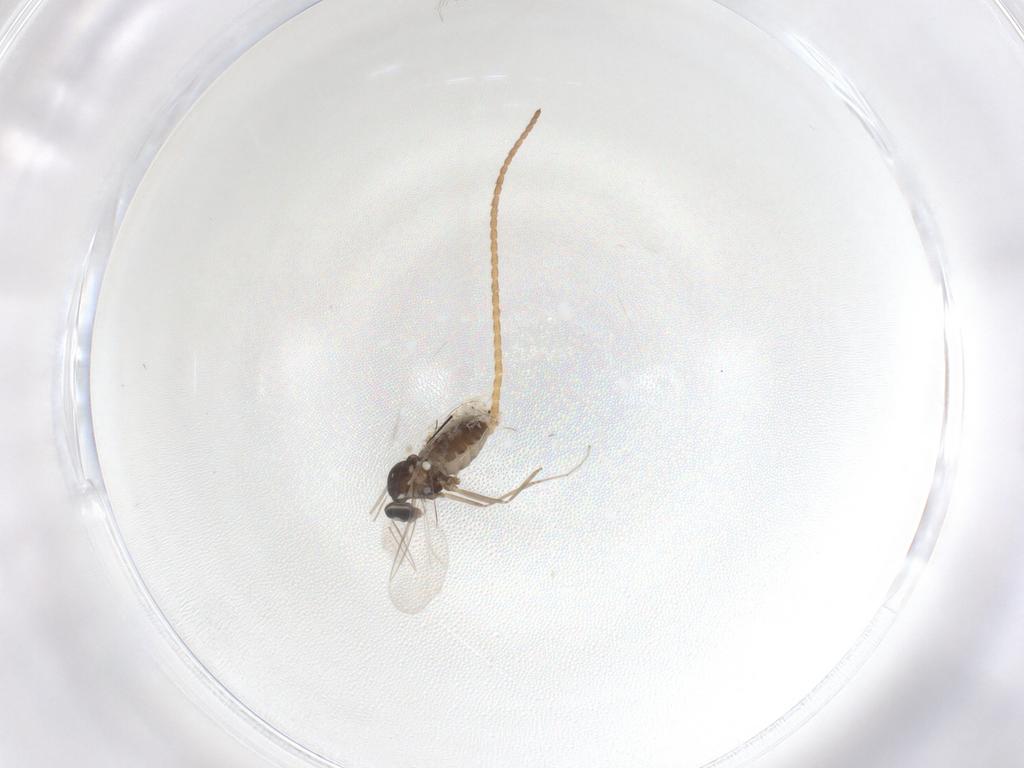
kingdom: Animalia
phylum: Arthropoda
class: Insecta
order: Diptera
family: Cecidomyiidae
